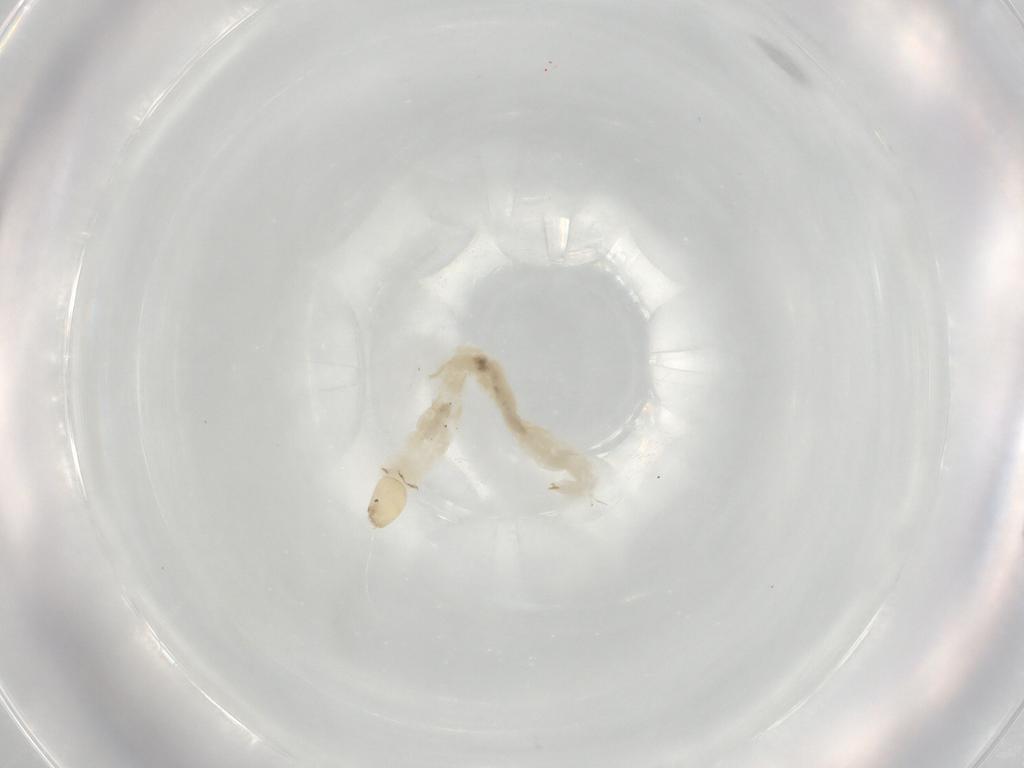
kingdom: Animalia
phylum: Arthropoda
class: Insecta
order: Diptera
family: Chironomidae
